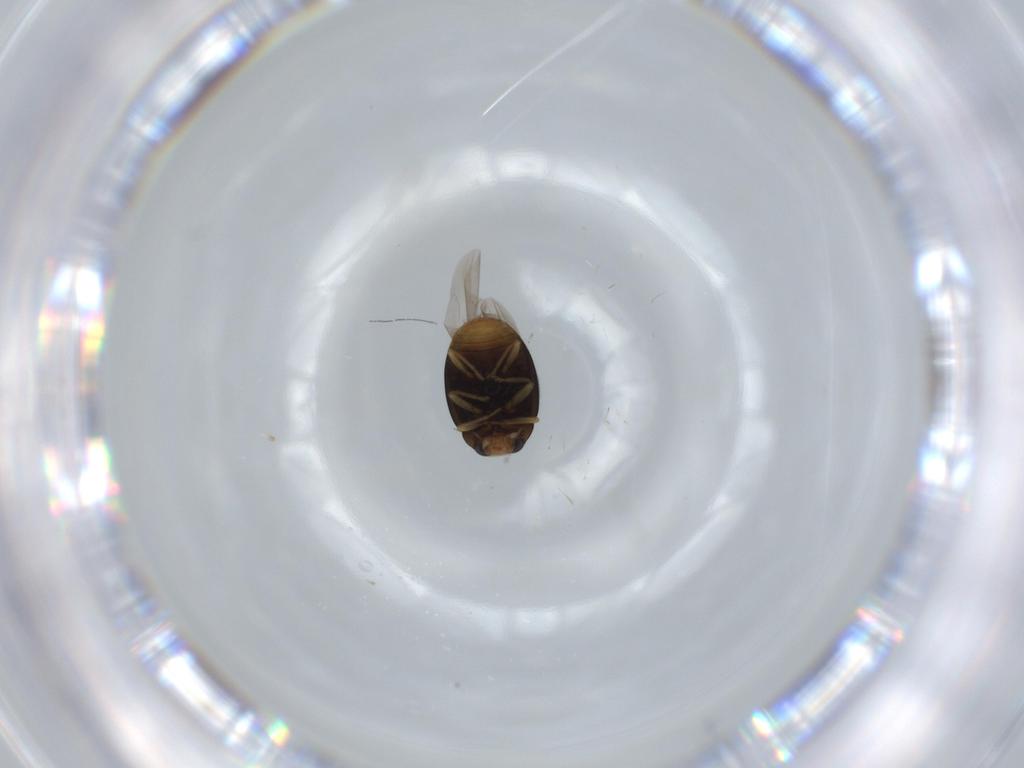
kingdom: Animalia
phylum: Arthropoda
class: Insecta
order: Coleoptera
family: Coccinellidae
